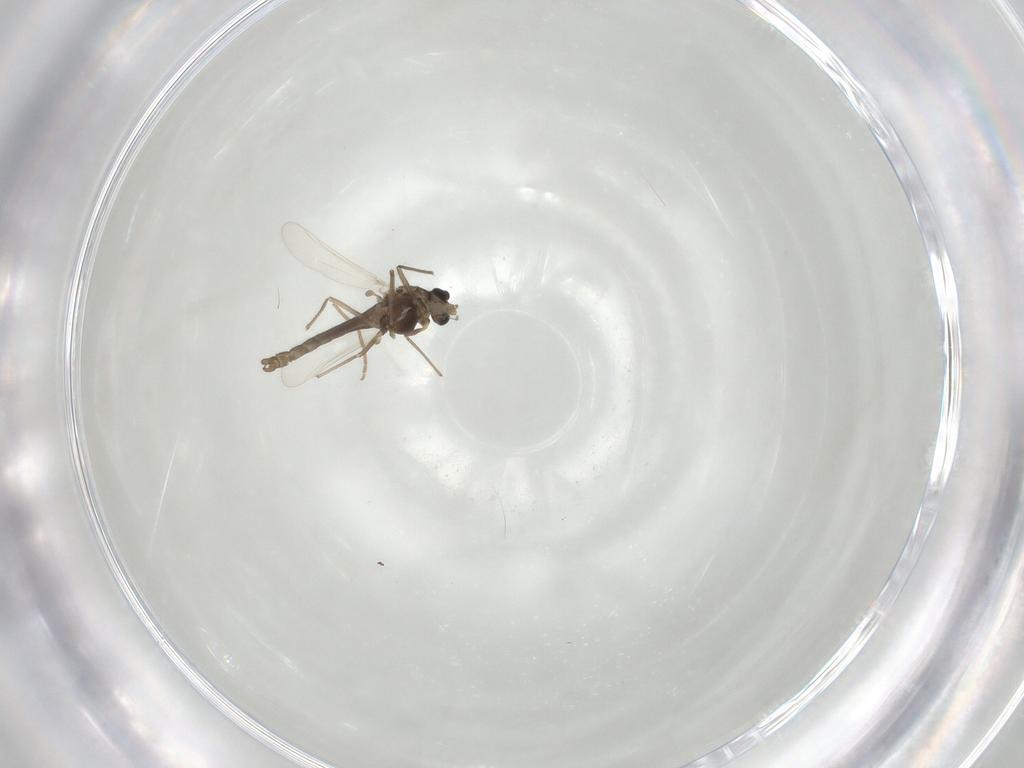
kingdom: Animalia
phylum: Arthropoda
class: Insecta
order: Diptera
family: Chironomidae
